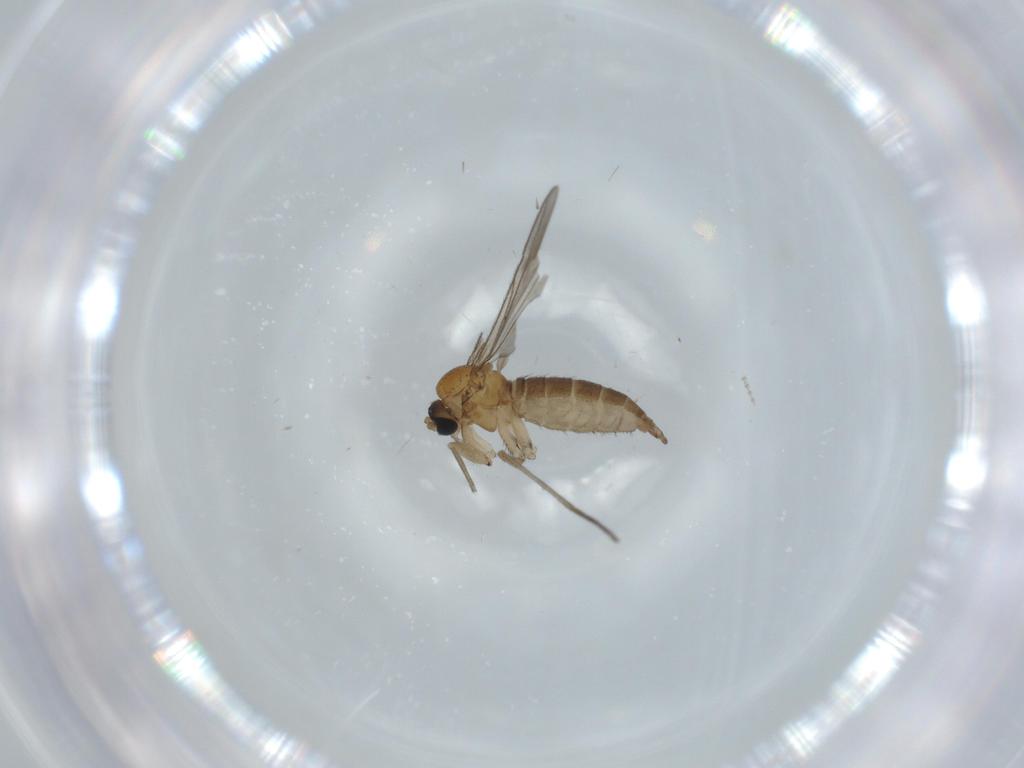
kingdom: Animalia
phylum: Arthropoda
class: Insecta
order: Diptera
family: Sciaridae
